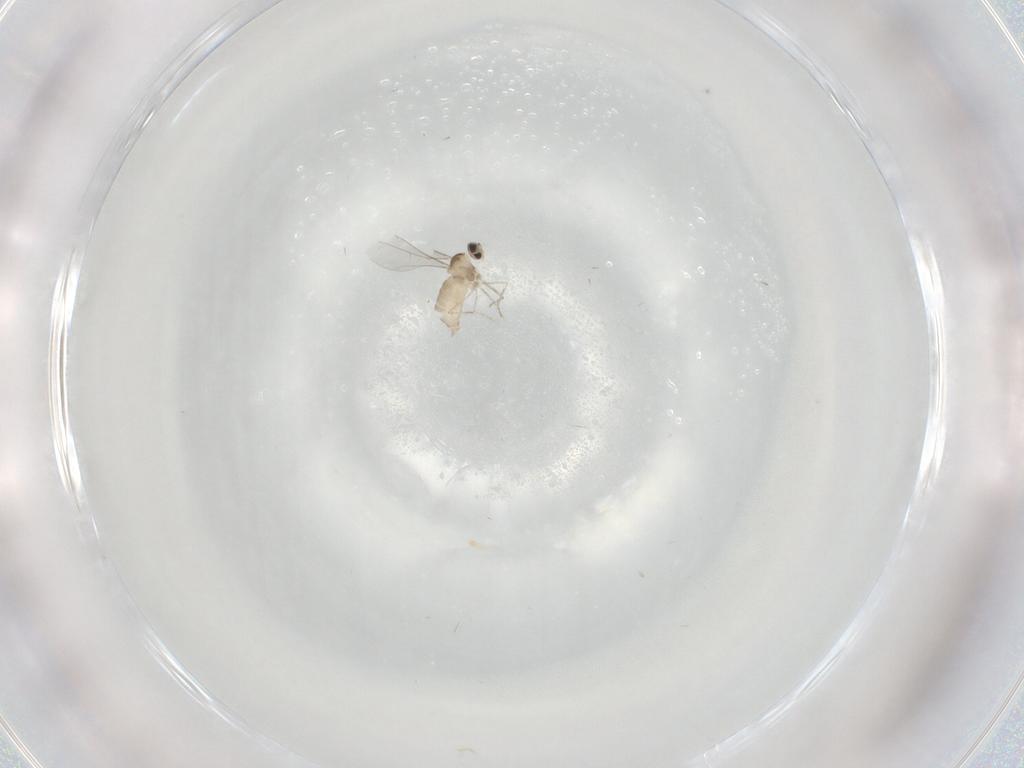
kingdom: Animalia
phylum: Arthropoda
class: Insecta
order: Diptera
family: Cecidomyiidae
